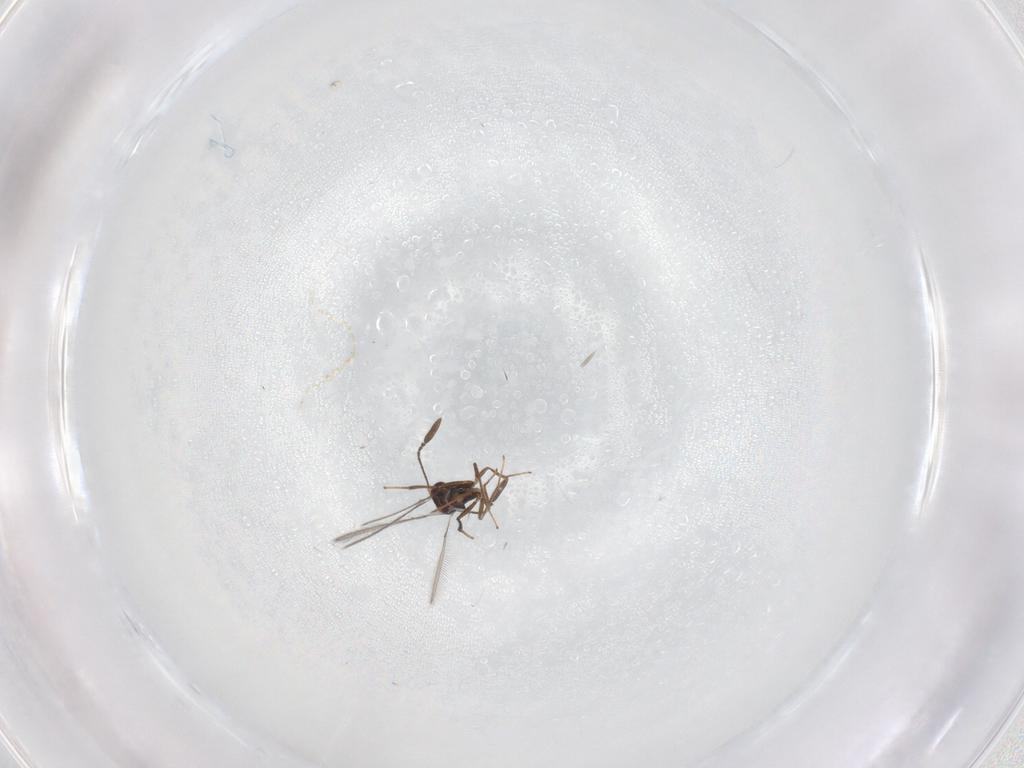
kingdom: Animalia
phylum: Arthropoda
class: Insecta
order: Hymenoptera
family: Mymaridae
